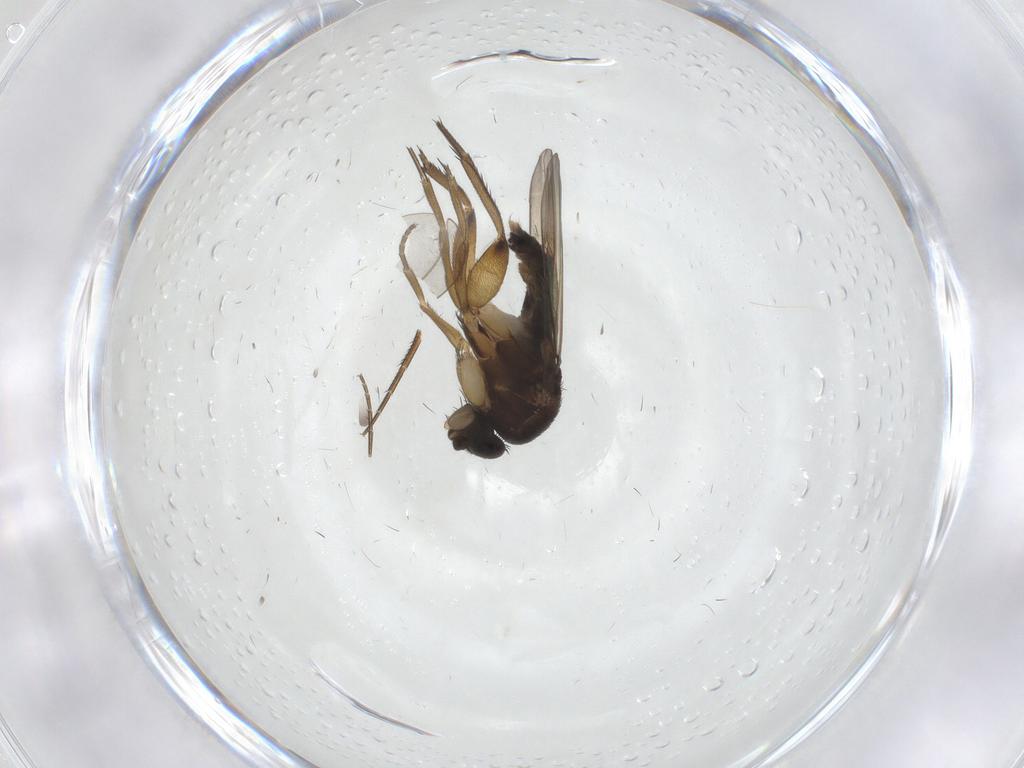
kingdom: Animalia
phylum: Arthropoda
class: Insecta
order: Diptera
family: Phoridae
